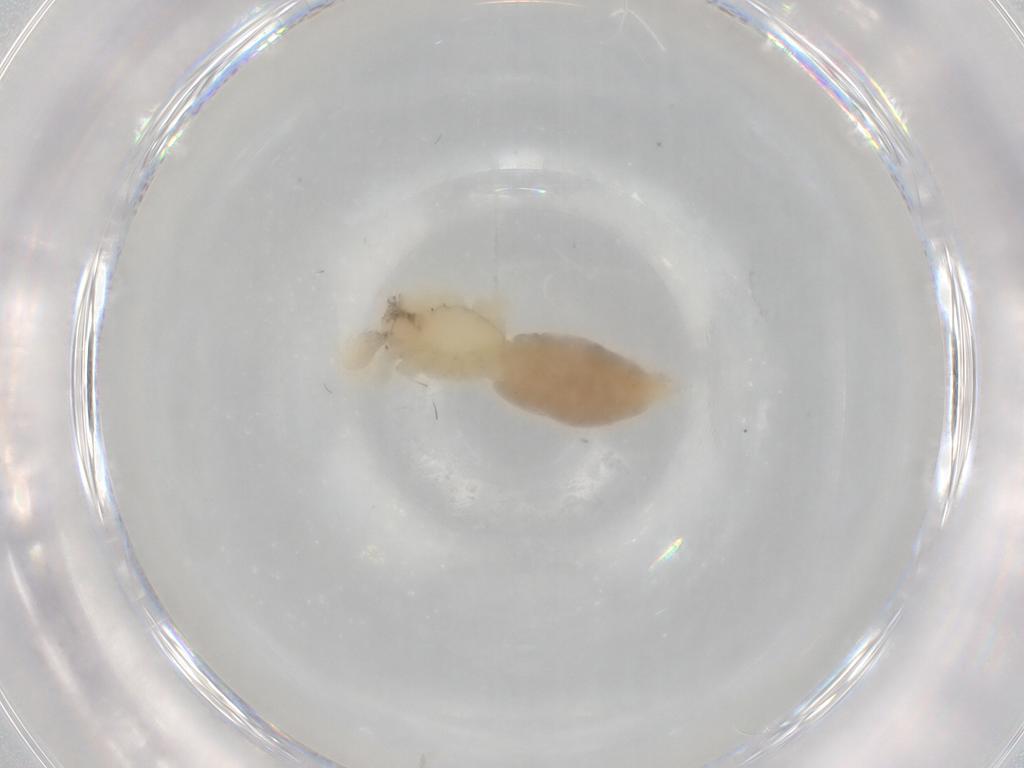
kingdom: Animalia
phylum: Arthropoda
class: Arachnida
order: Araneae
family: Anyphaenidae
